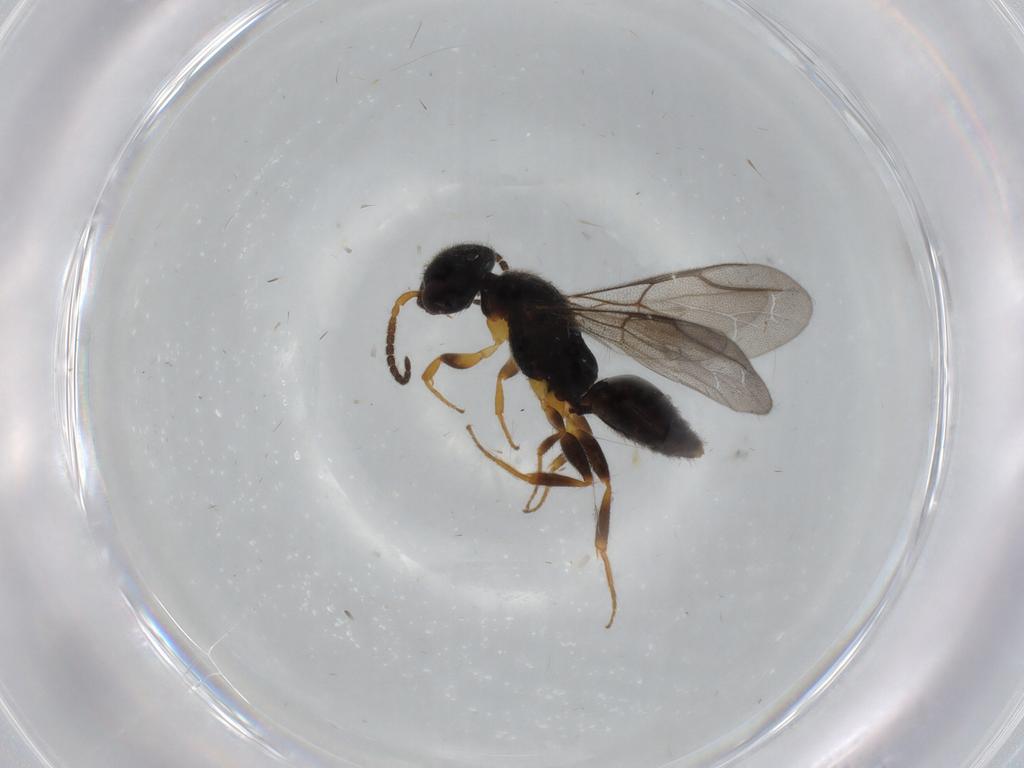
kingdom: Animalia
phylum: Arthropoda
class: Insecta
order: Hymenoptera
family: Bethylidae
